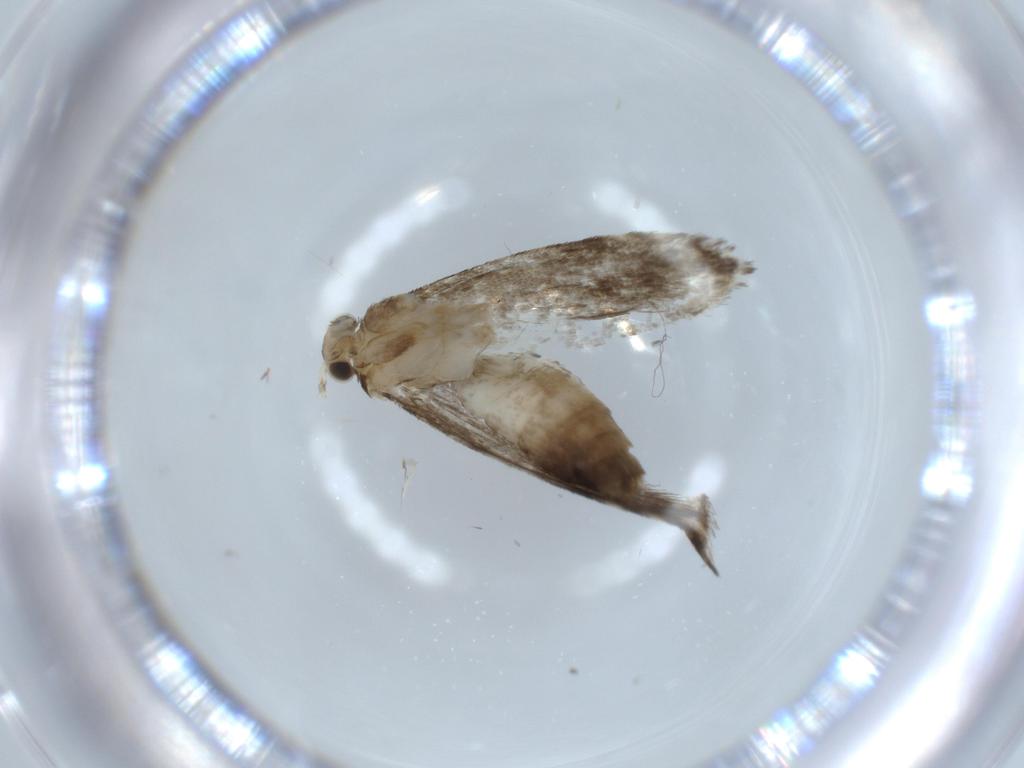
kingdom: Animalia
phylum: Arthropoda
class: Insecta
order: Lepidoptera
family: Tineidae
